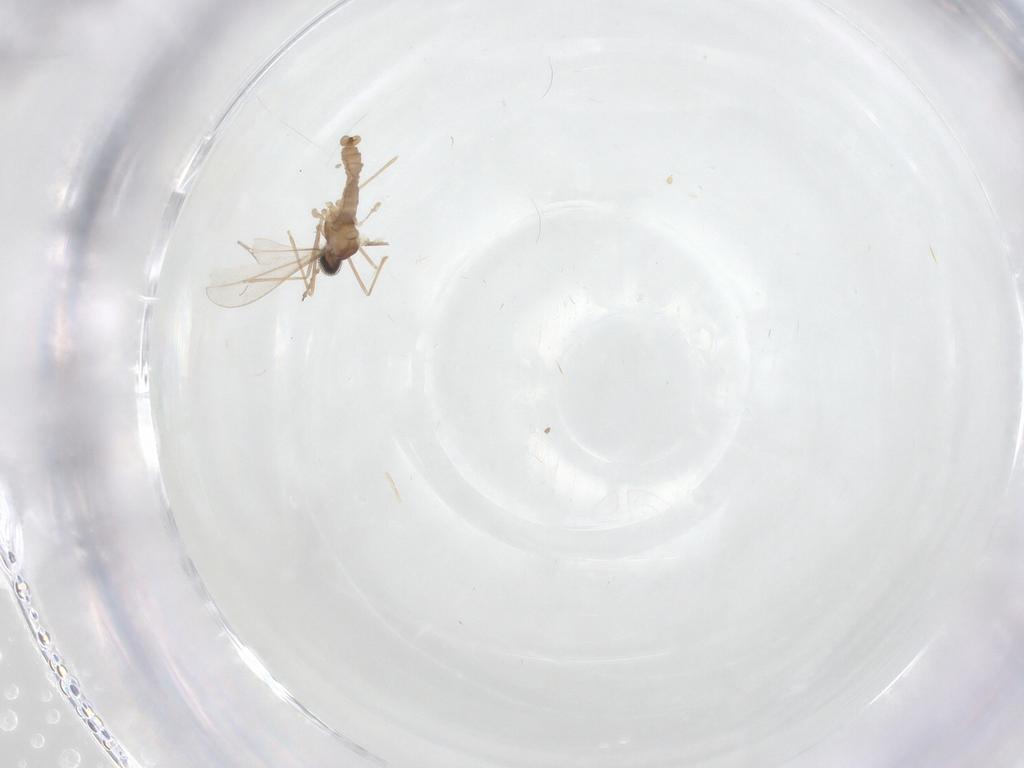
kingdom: Animalia
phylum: Arthropoda
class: Insecta
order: Diptera
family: Cecidomyiidae
